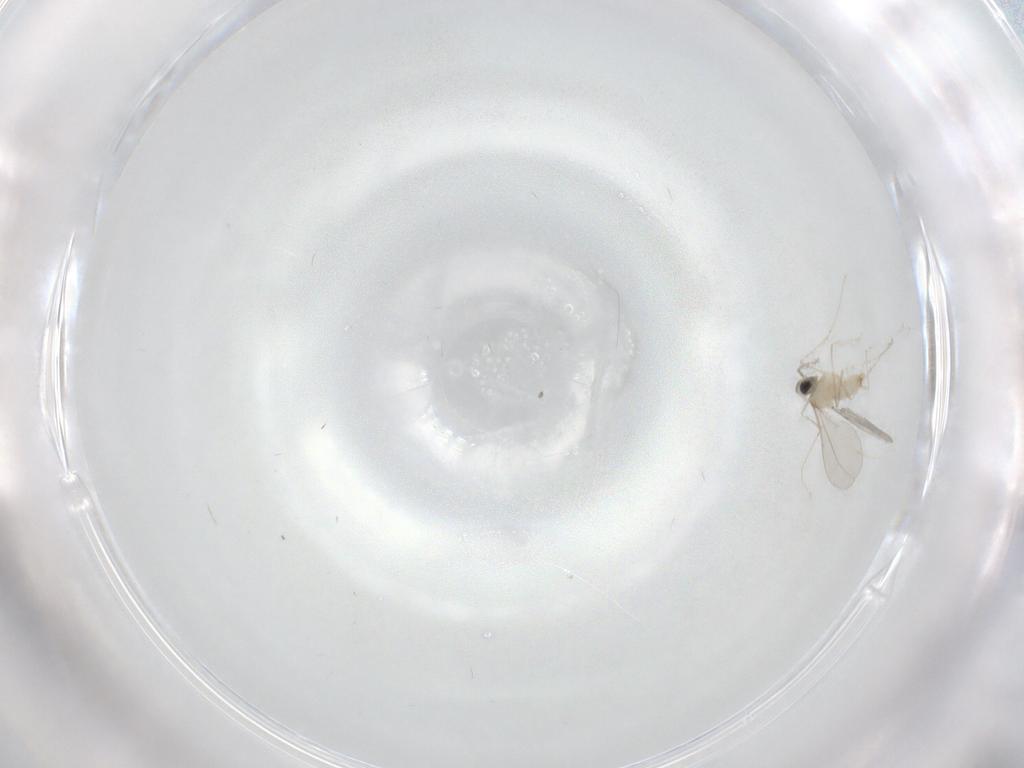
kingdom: Animalia
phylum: Arthropoda
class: Insecta
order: Diptera
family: Cecidomyiidae
